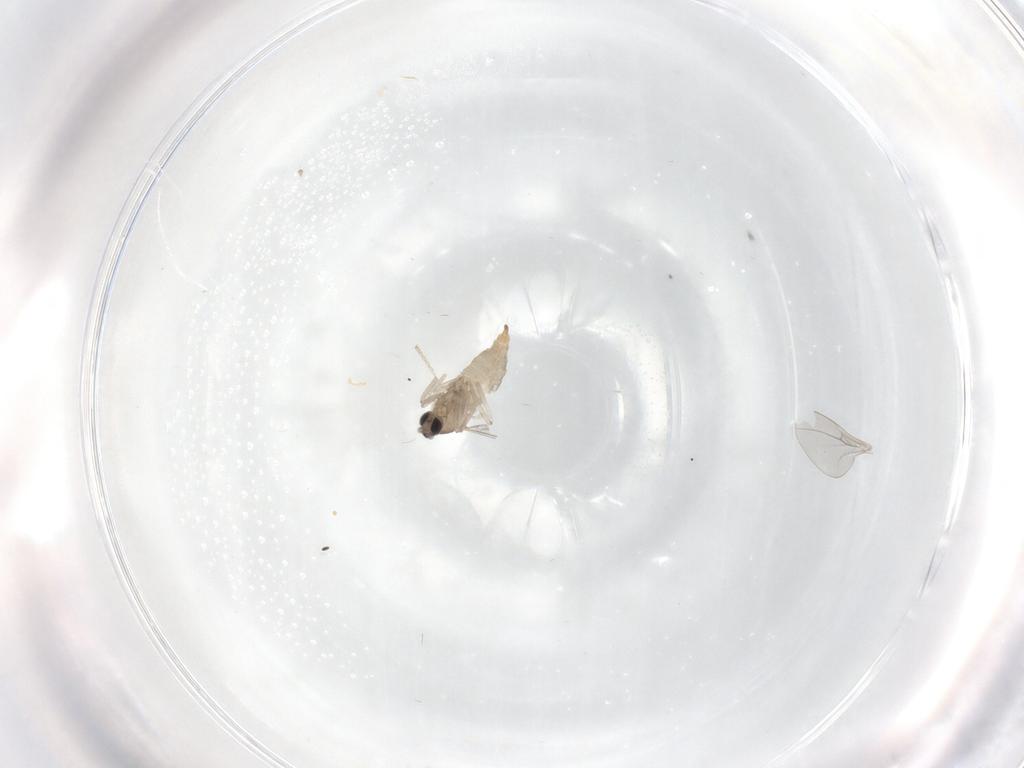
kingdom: Animalia
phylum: Arthropoda
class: Insecta
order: Diptera
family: Cecidomyiidae
